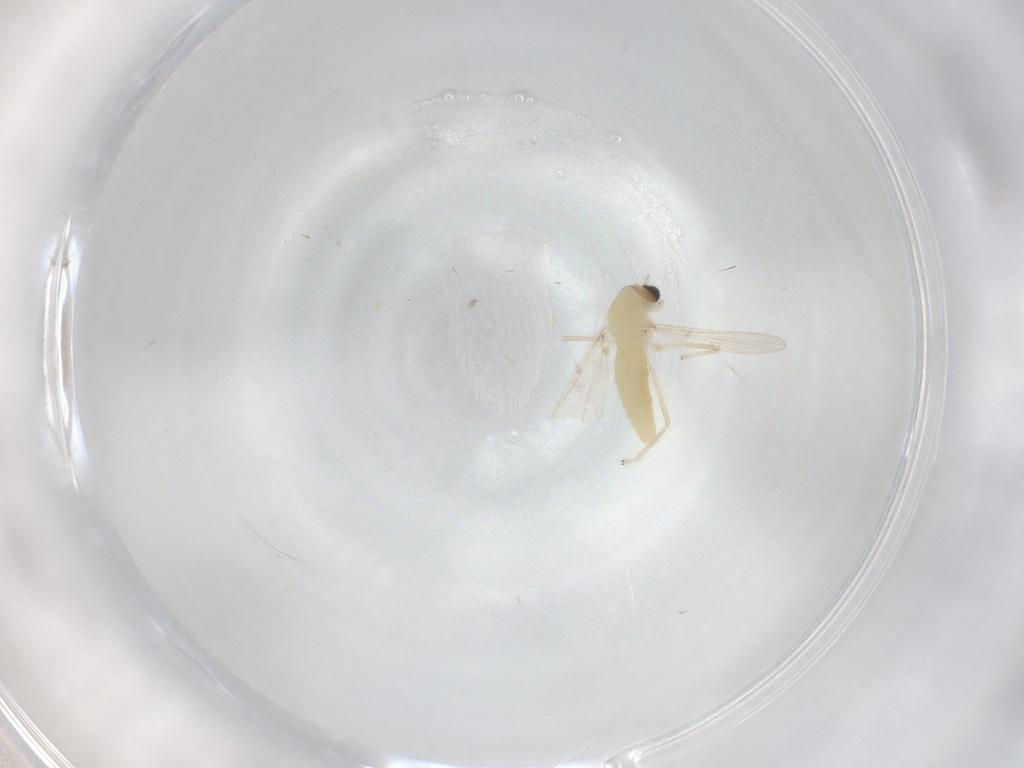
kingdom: Animalia
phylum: Arthropoda
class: Insecta
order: Diptera
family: Chironomidae
